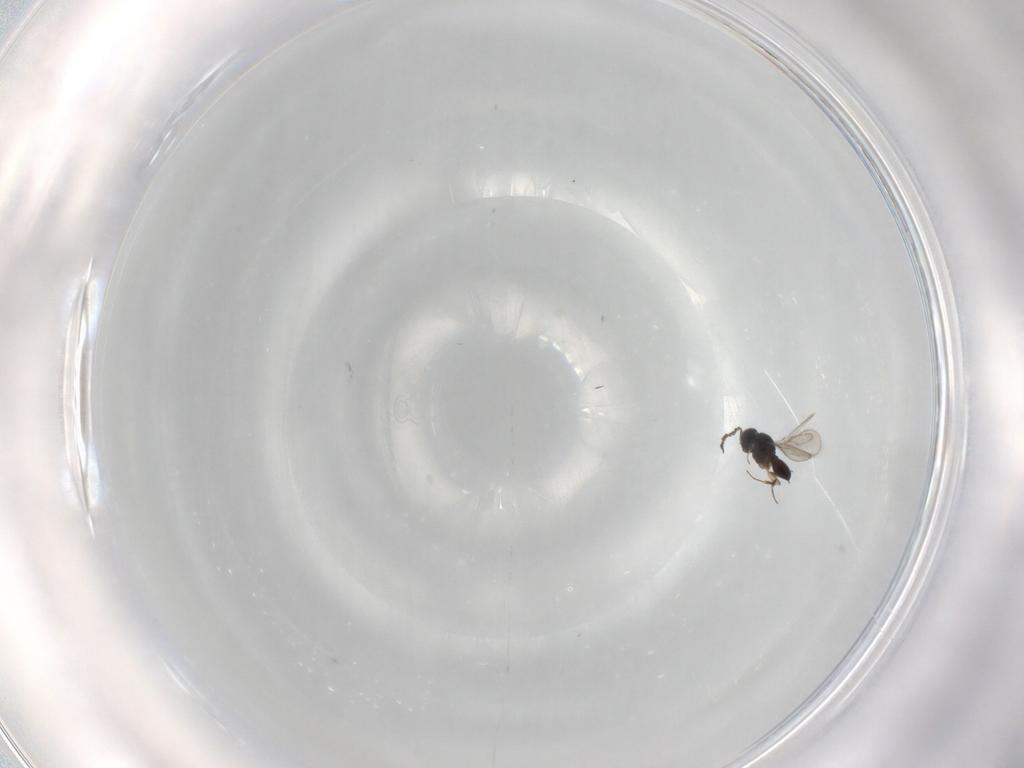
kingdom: Animalia
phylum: Arthropoda
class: Insecta
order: Hymenoptera
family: Scelionidae
